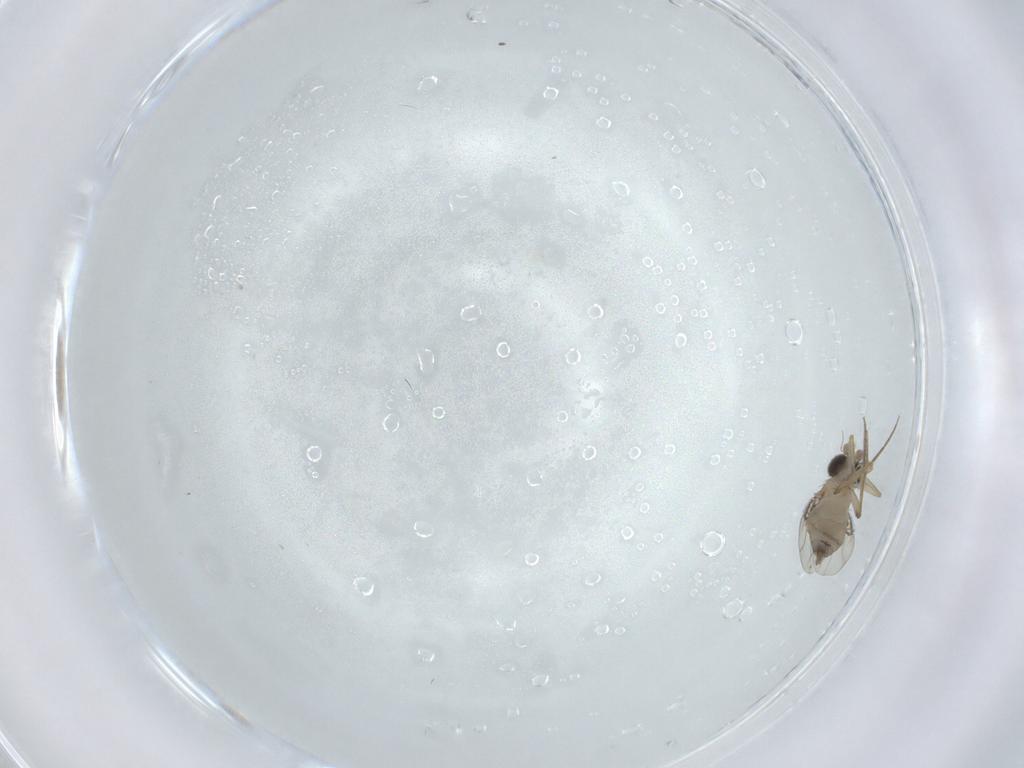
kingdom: Animalia
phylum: Arthropoda
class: Insecta
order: Diptera
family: Phoridae
